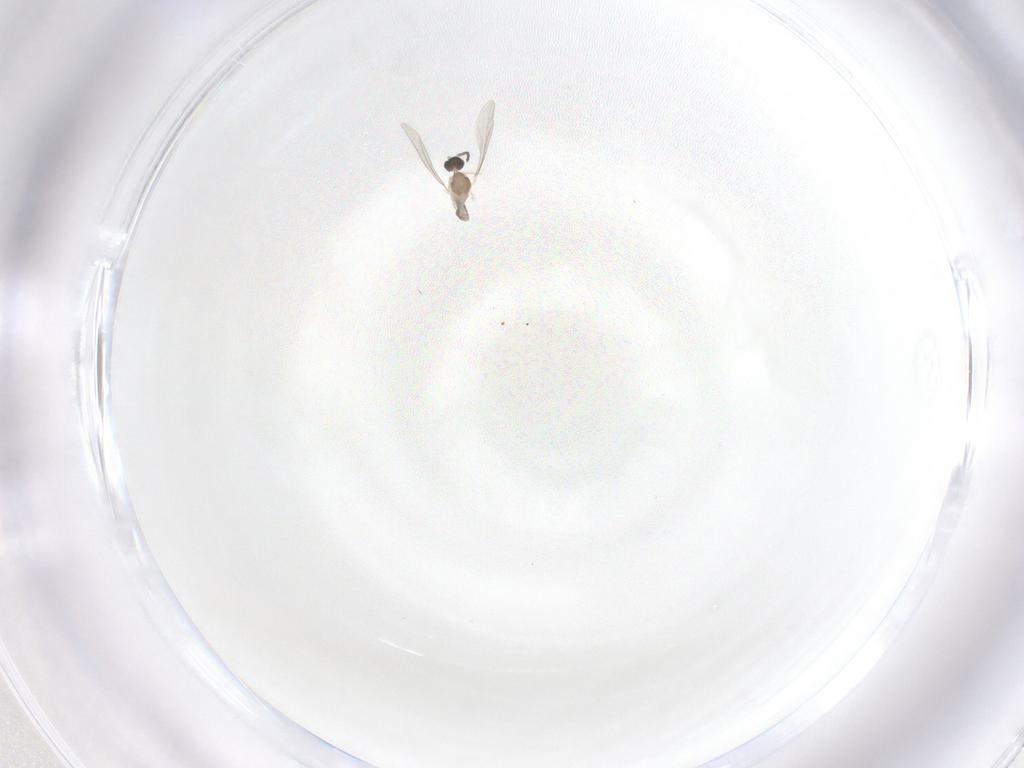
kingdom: Animalia
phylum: Arthropoda
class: Insecta
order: Diptera
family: Cecidomyiidae
